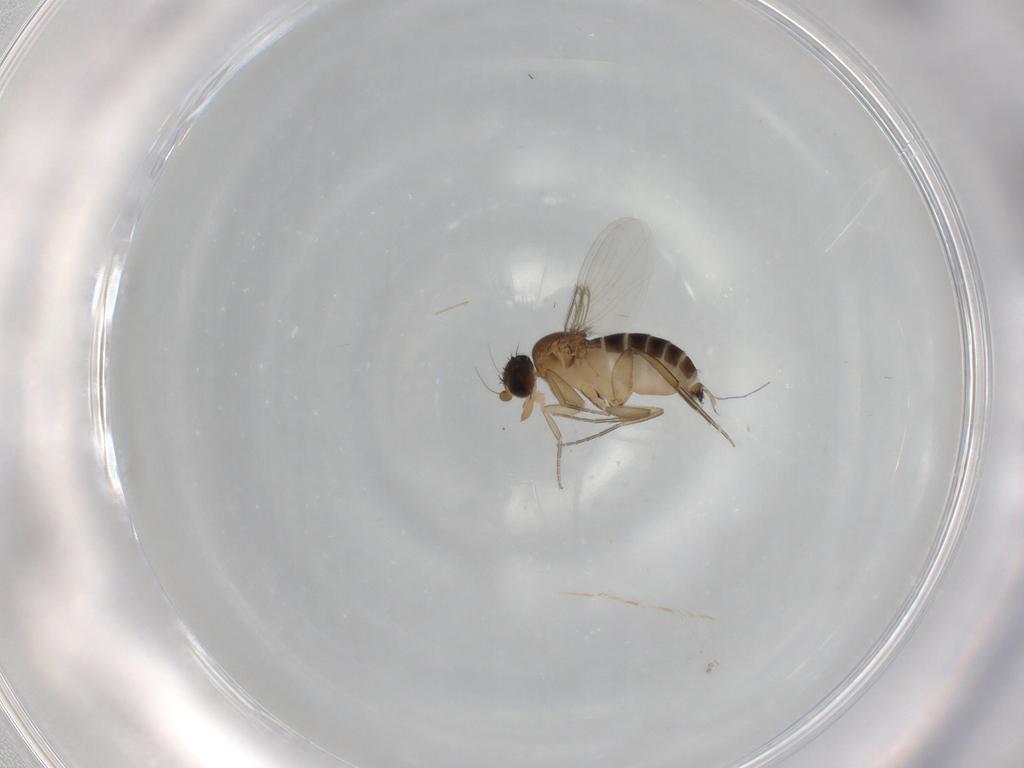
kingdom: Animalia
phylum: Arthropoda
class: Insecta
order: Diptera
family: Cecidomyiidae
